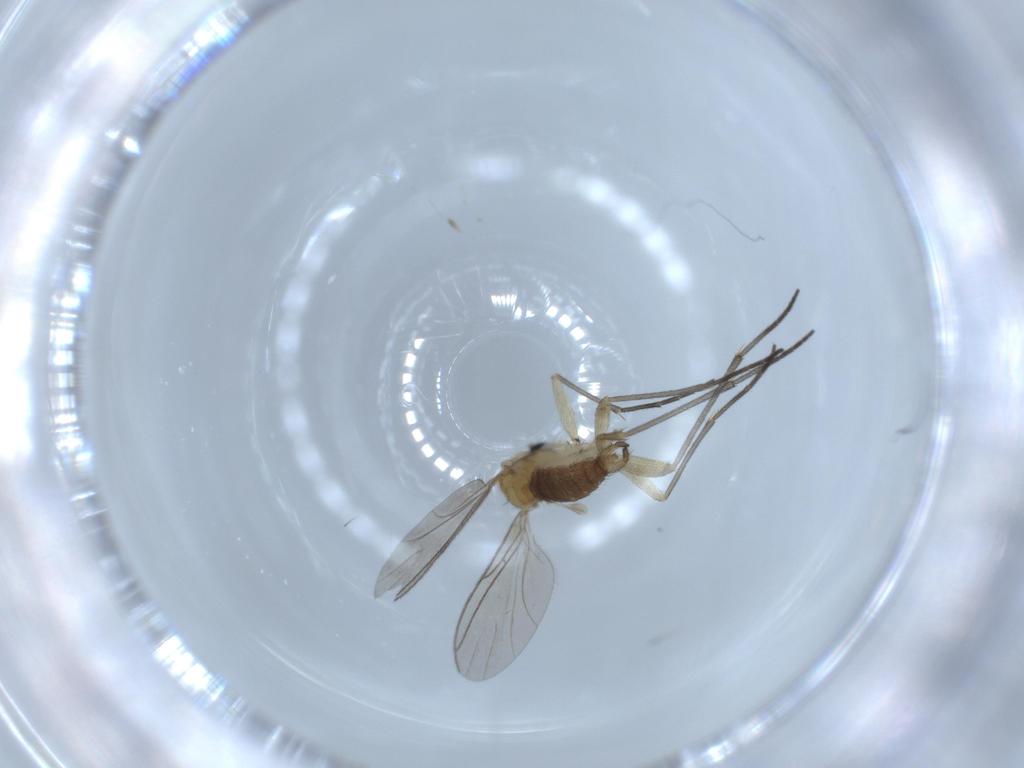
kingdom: Animalia
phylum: Arthropoda
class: Insecta
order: Diptera
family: Sciaridae
